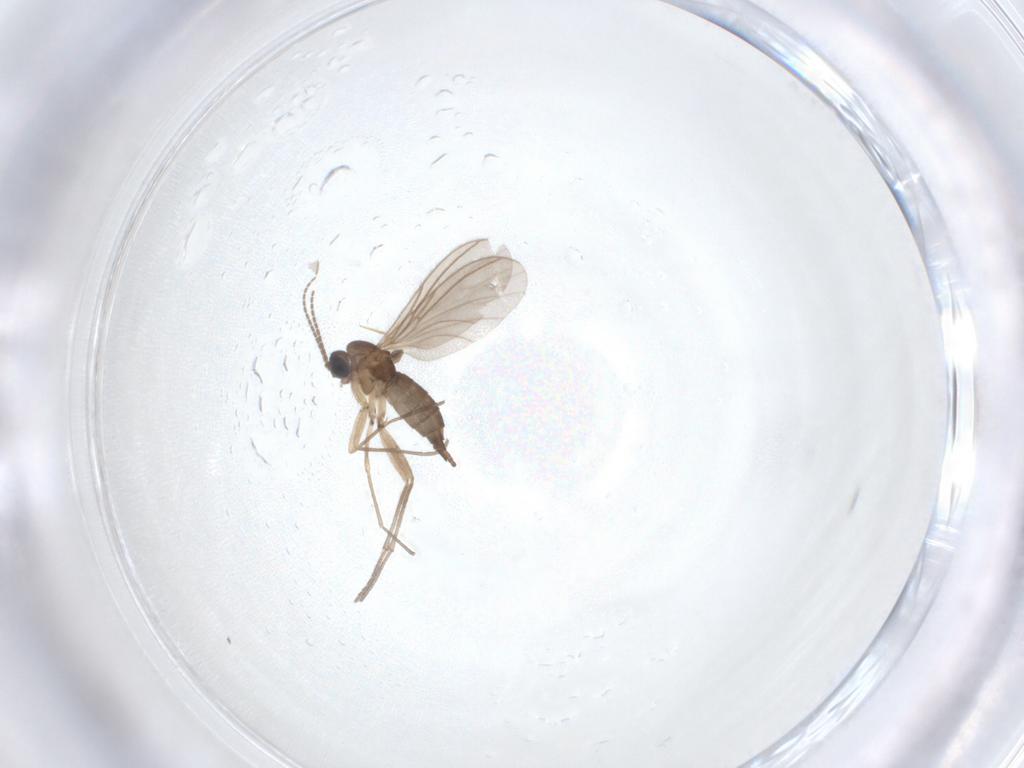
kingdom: Animalia
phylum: Arthropoda
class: Insecta
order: Diptera
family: Sciaridae
